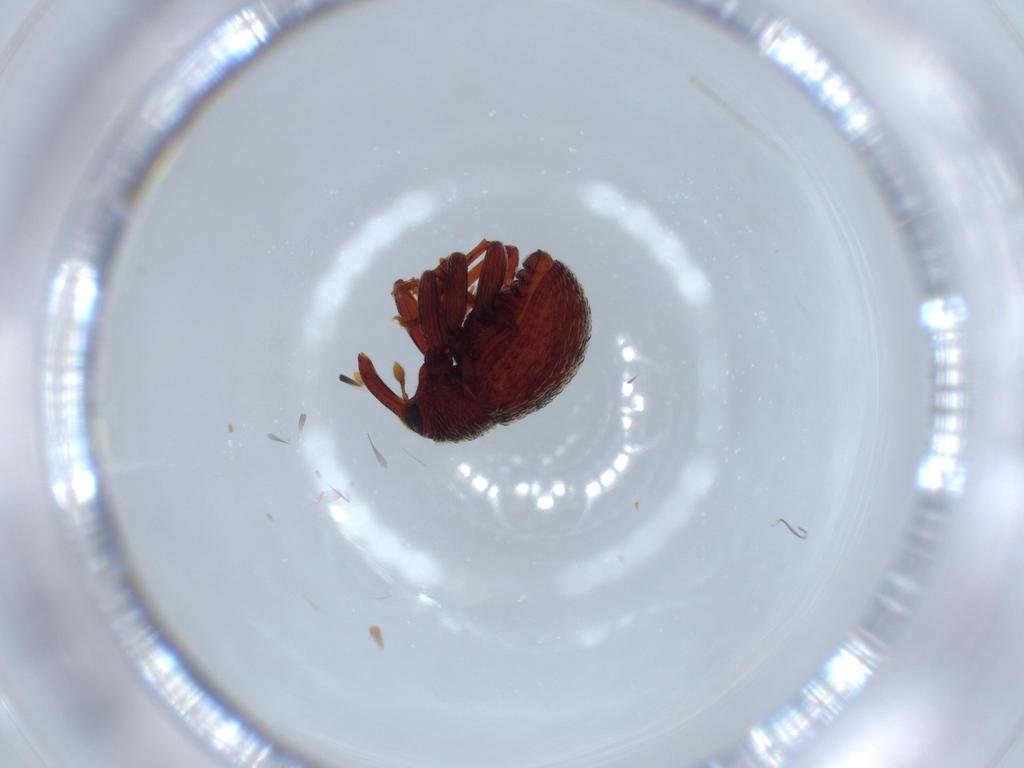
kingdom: Animalia
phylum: Arthropoda
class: Insecta
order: Coleoptera
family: Curculionidae
